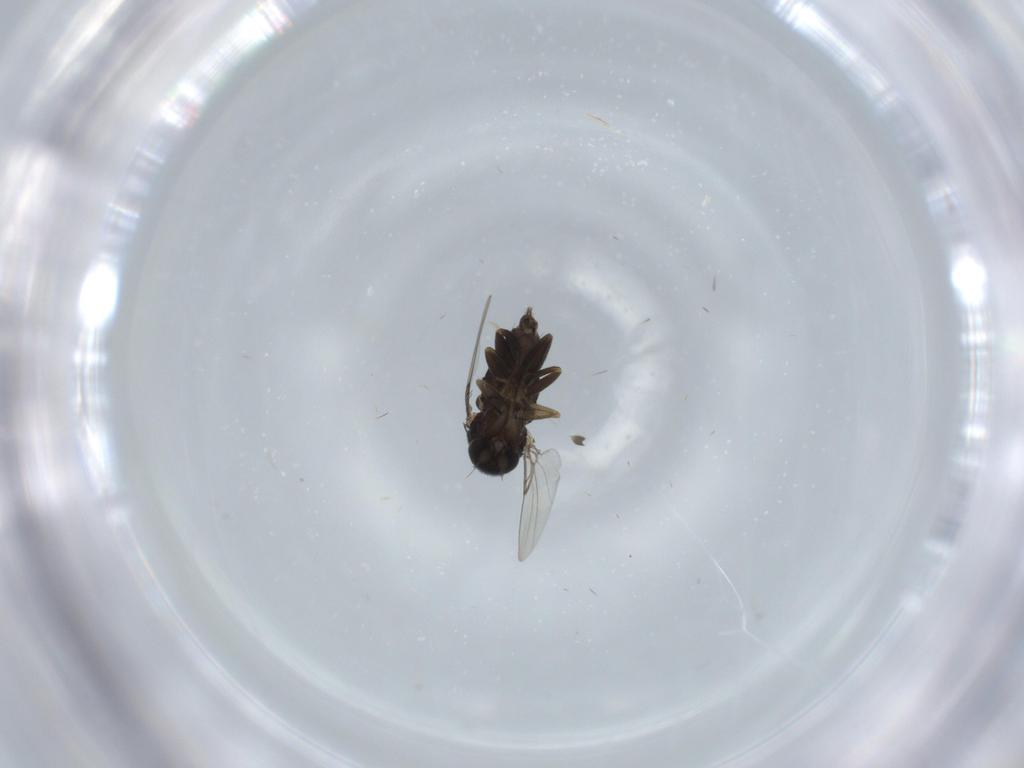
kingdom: Animalia
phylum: Arthropoda
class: Insecta
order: Diptera
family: Phoridae
